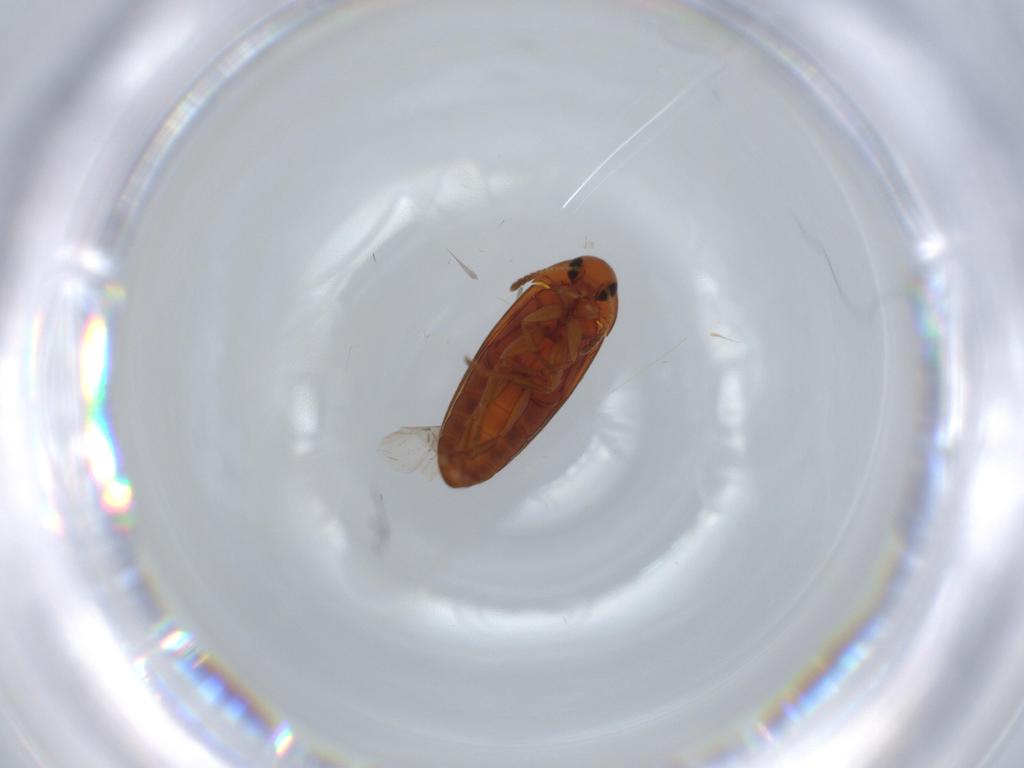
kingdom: Animalia
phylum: Arthropoda
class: Insecta
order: Coleoptera
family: Scraptiidae
